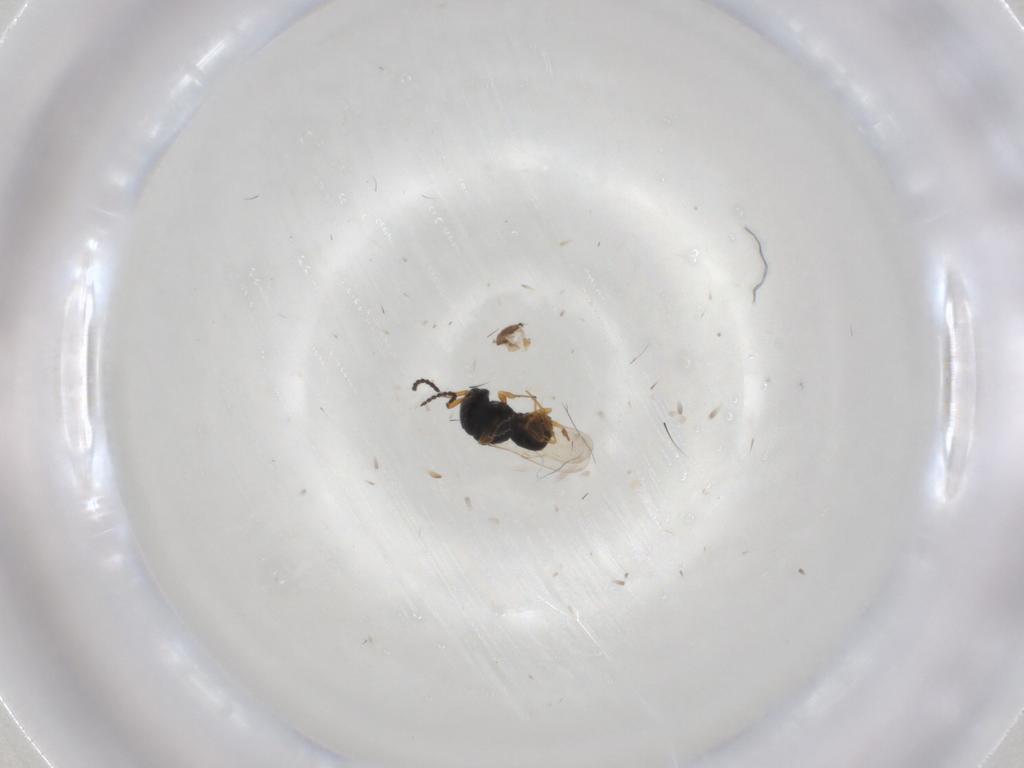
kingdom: Animalia
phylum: Arthropoda
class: Insecta
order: Hymenoptera
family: Scelionidae
